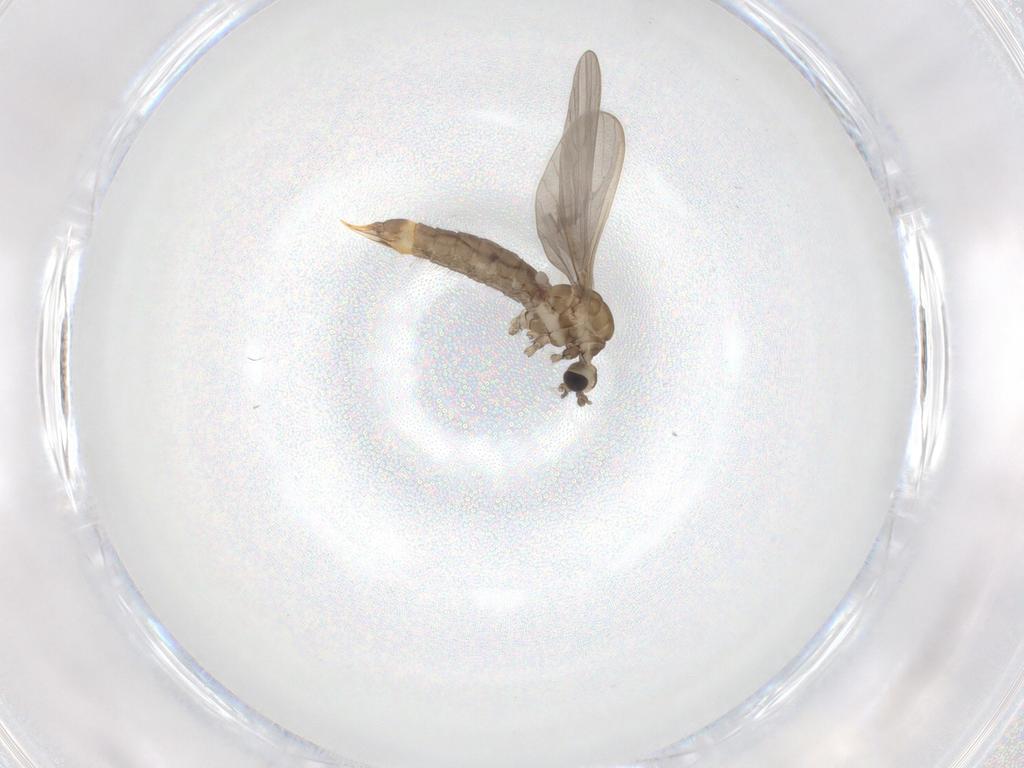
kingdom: Animalia
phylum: Arthropoda
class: Insecta
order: Diptera
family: Limoniidae
